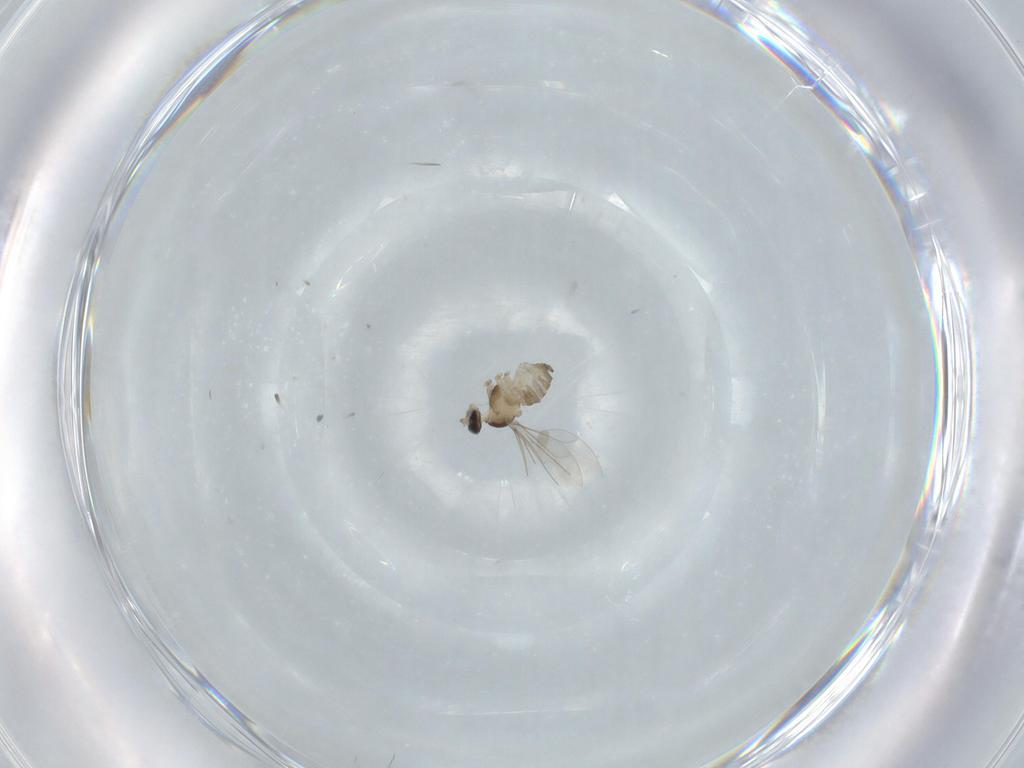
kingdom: Animalia
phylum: Arthropoda
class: Insecta
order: Diptera
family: Cecidomyiidae
